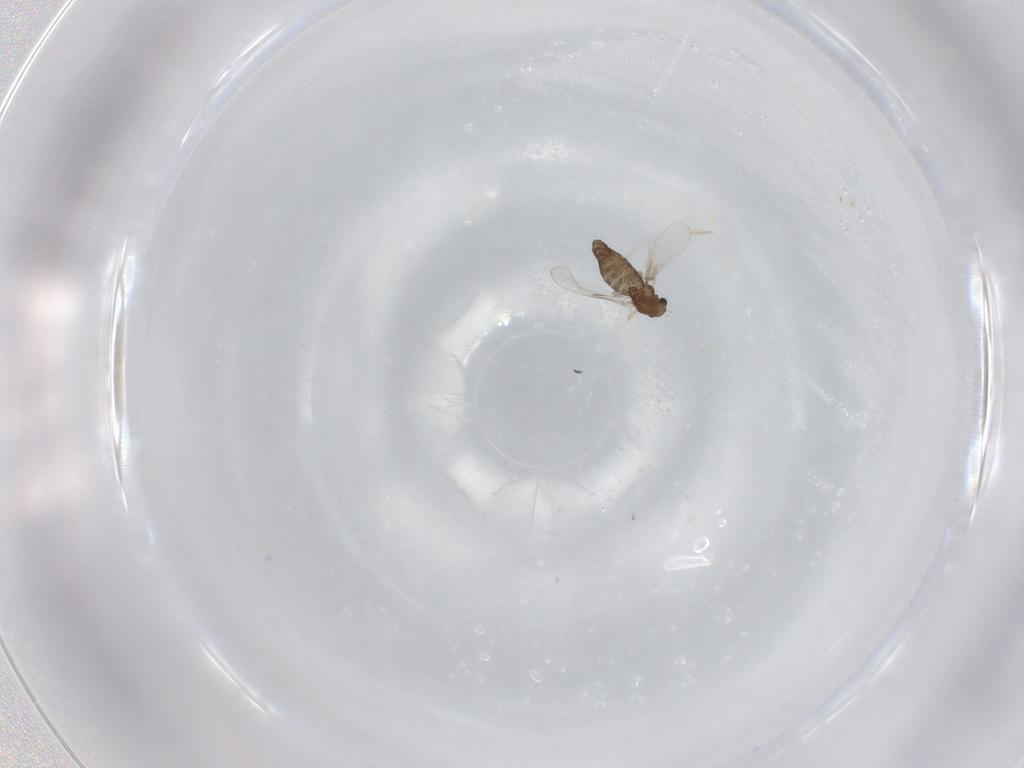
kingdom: Animalia
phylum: Arthropoda
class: Insecta
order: Diptera
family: Chironomidae
